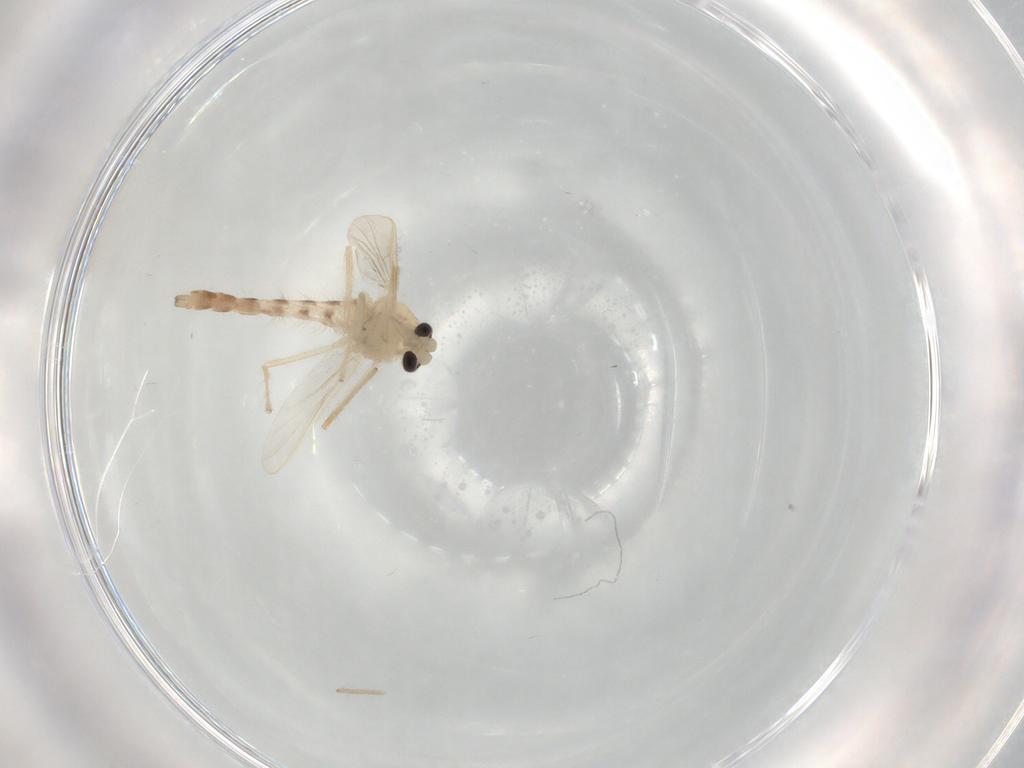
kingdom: Animalia
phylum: Arthropoda
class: Insecta
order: Diptera
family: Chironomidae
